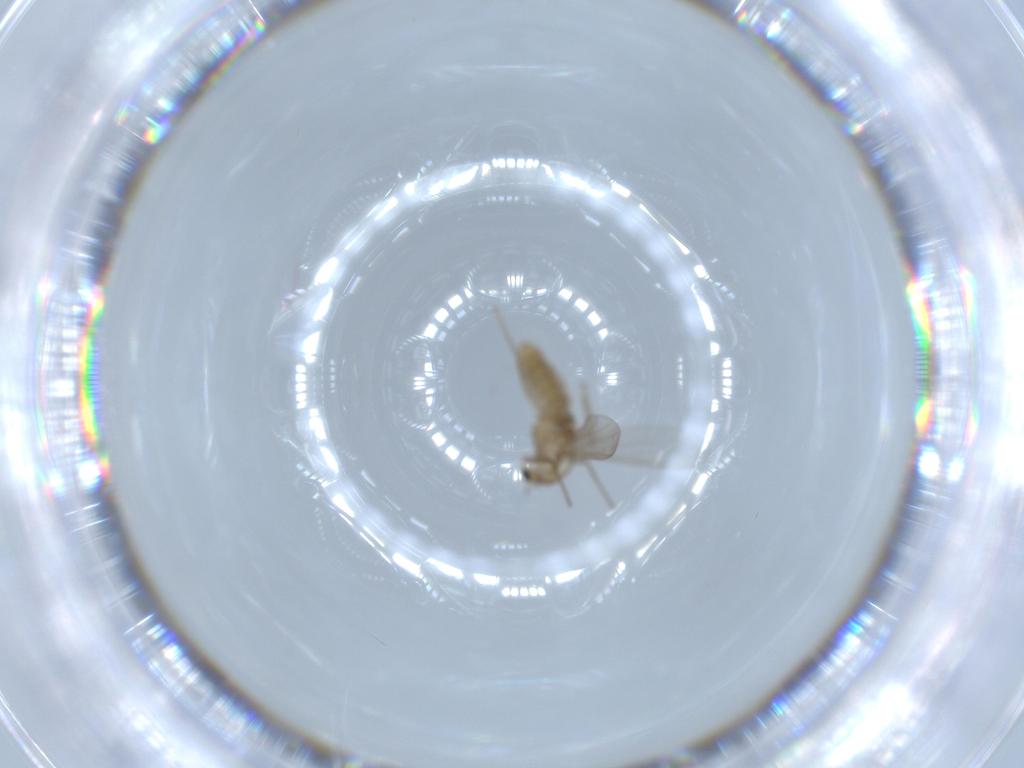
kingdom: Animalia
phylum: Arthropoda
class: Insecta
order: Diptera
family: Chironomidae
